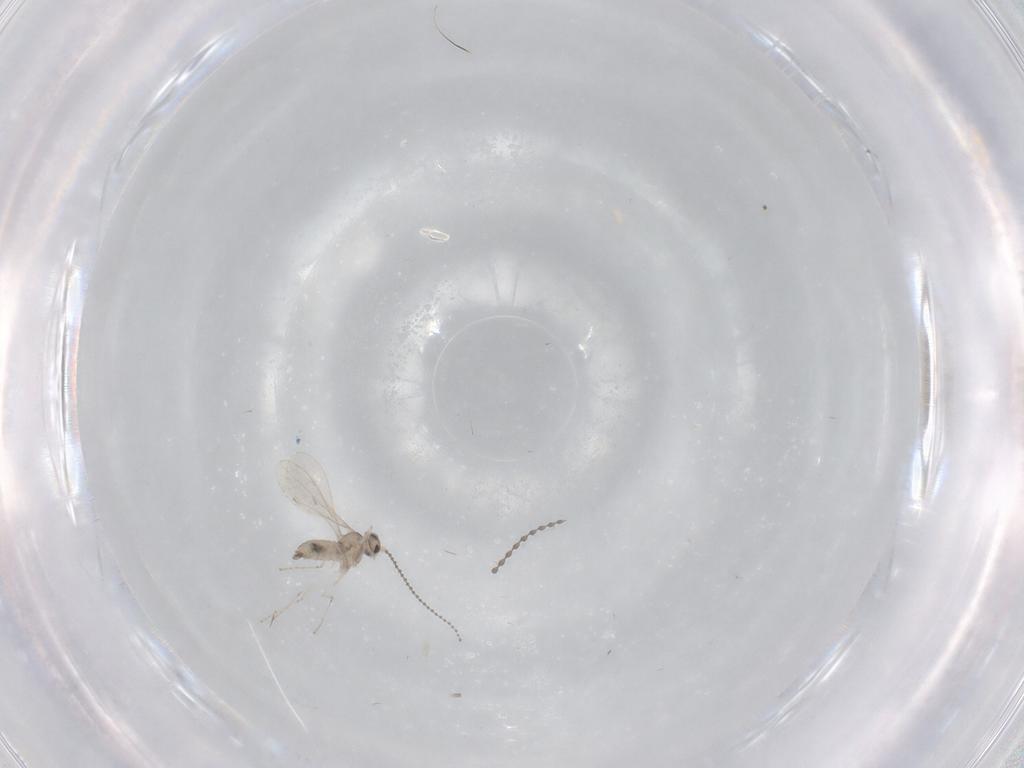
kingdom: Animalia
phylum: Arthropoda
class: Insecta
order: Diptera
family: Cecidomyiidae
